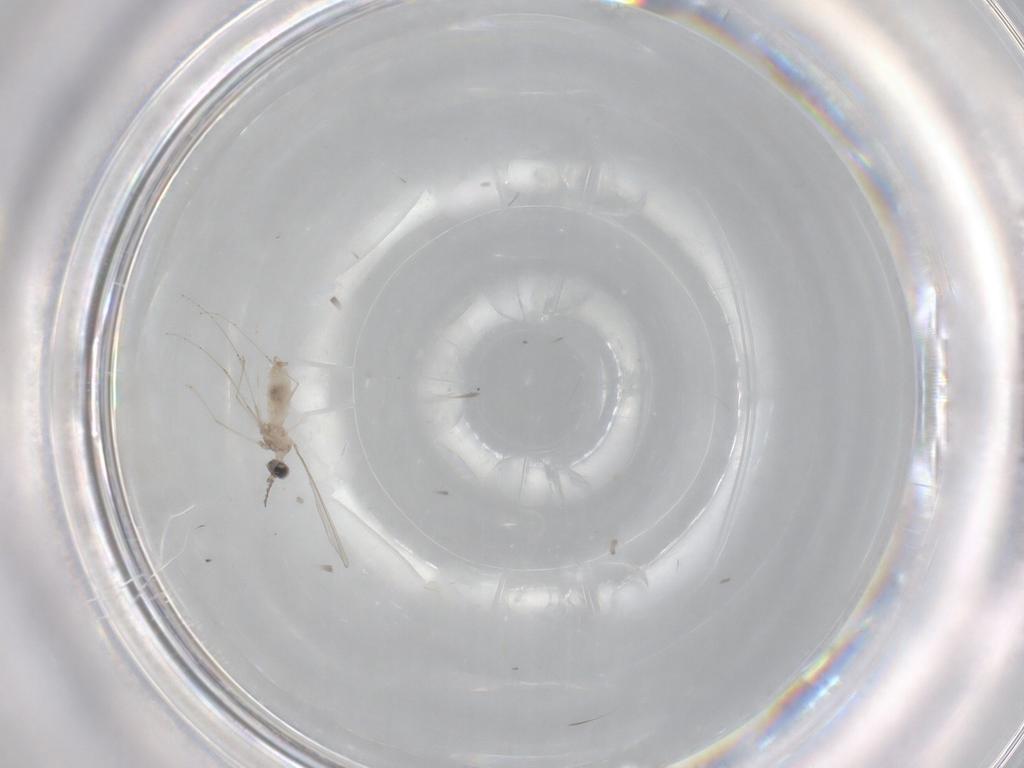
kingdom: Animalia
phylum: Arthropoda
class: Insecta
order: Diptera
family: Cecidomyiidae
